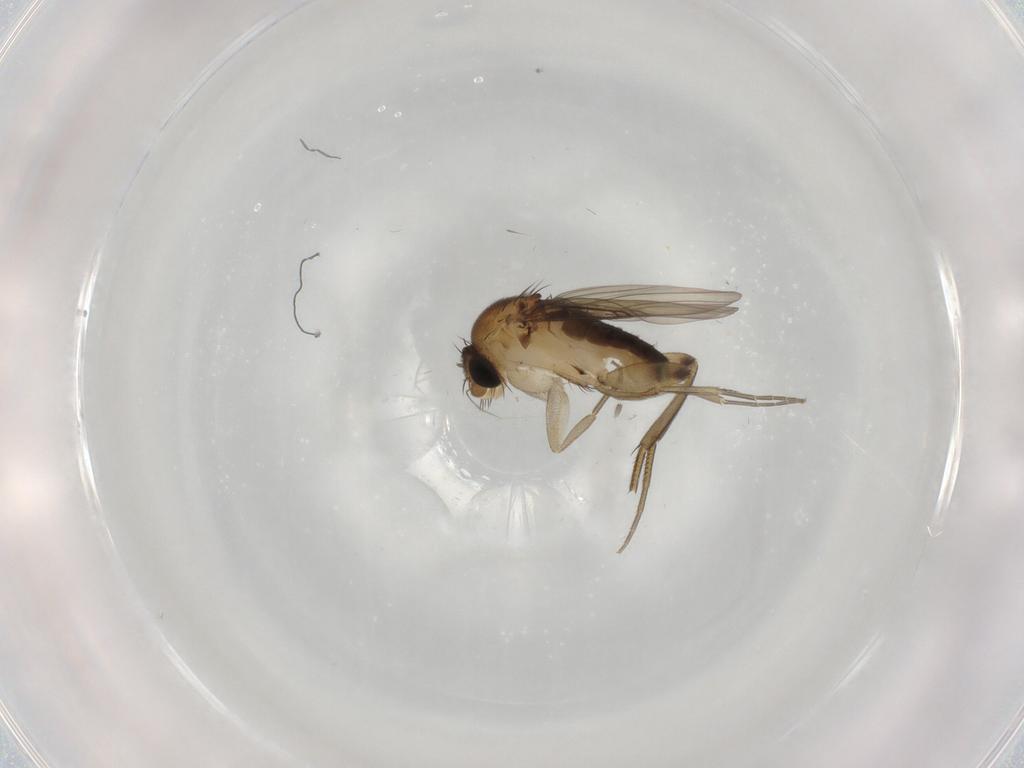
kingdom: Animalia
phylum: Arthropoda
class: Insecta
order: Diptera
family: Phoridae
